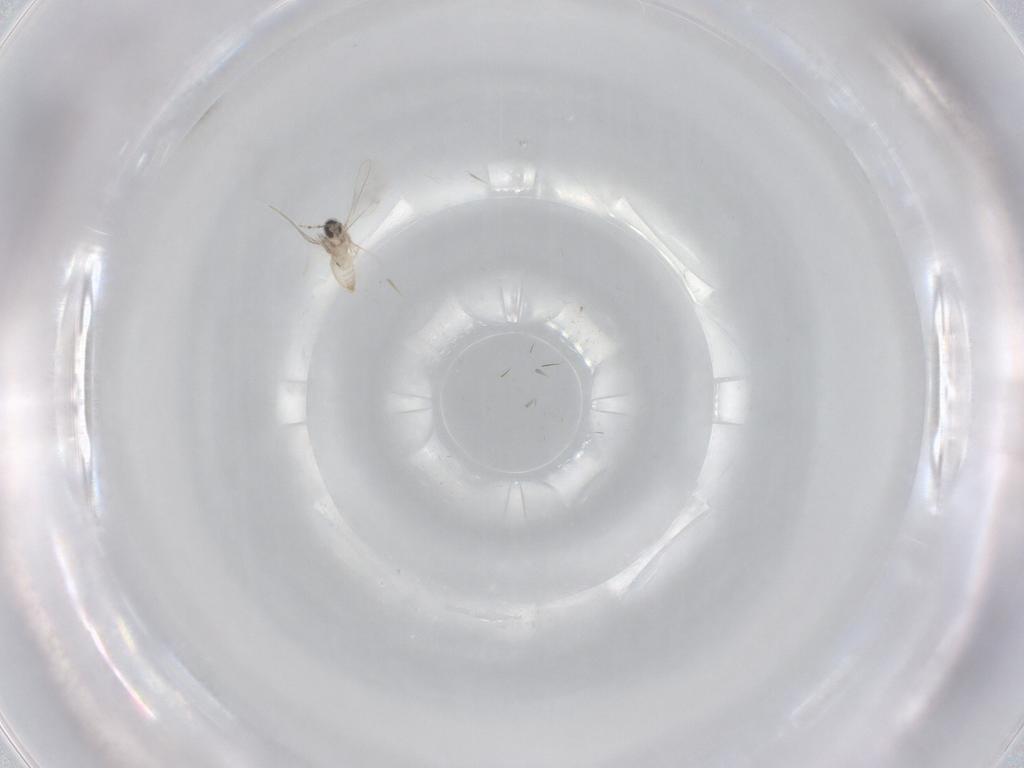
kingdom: Animalia
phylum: Arthropoda
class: Insecta
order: Diptera
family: Cecidomyiidae
